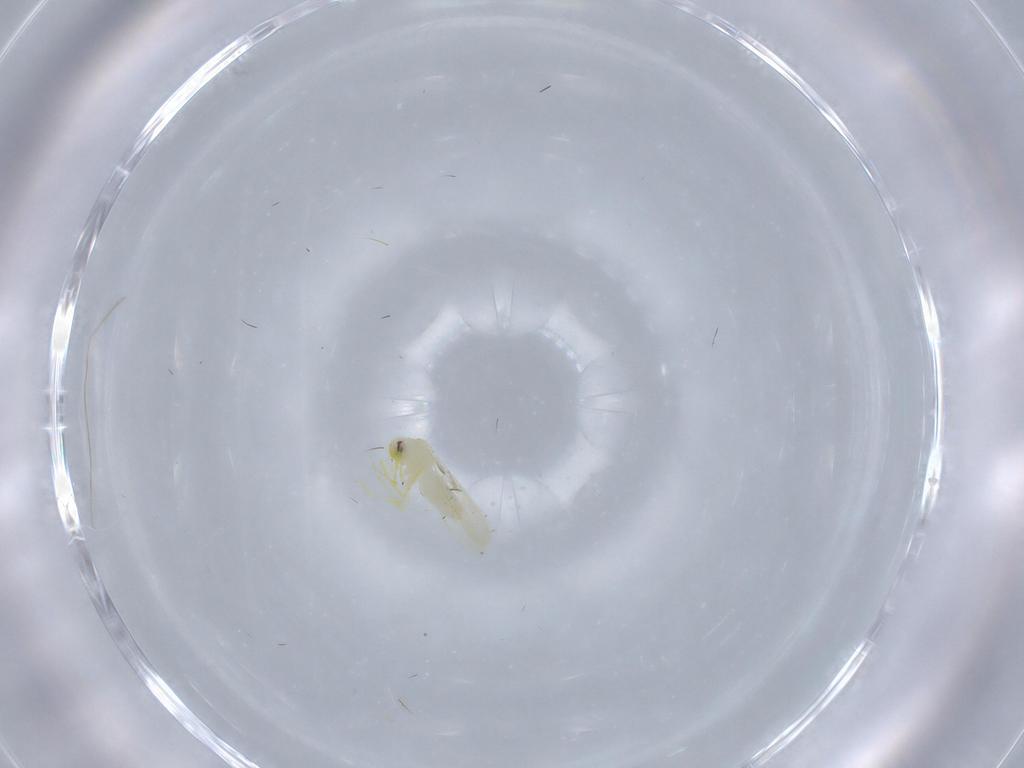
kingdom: Animalia
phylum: Arthropoda
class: Insecta
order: Hemiptera
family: Aleyrodidae
